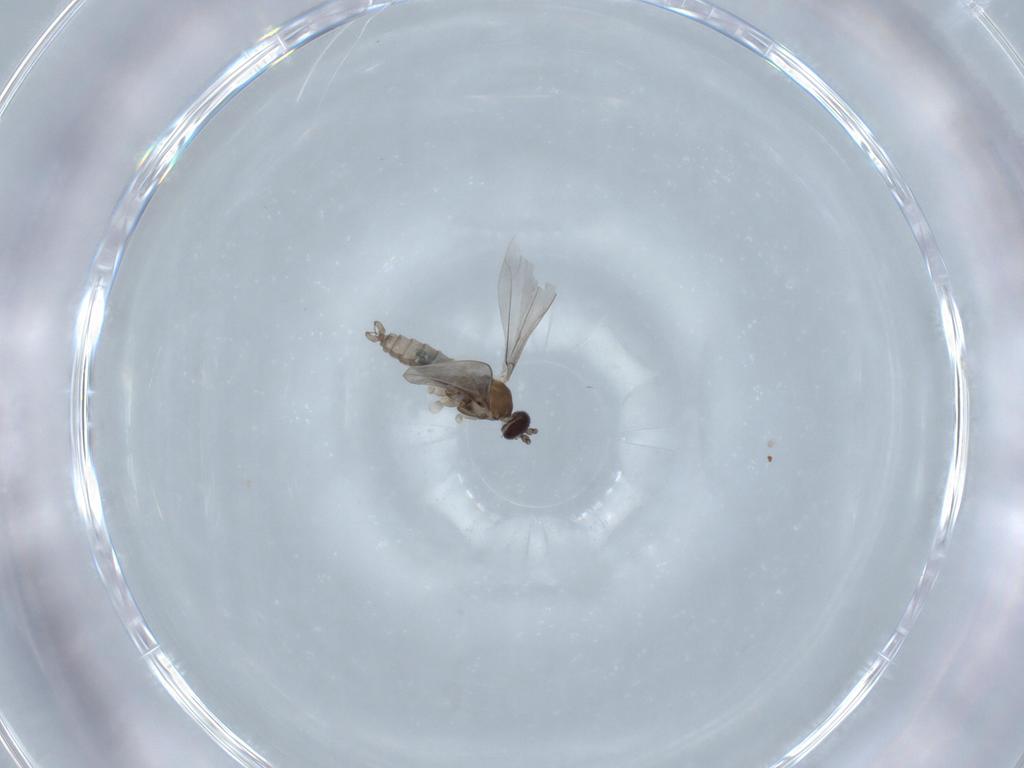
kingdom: Animalia
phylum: Arthropoda
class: Insecta
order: Diptera
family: Cecidomyiidae
